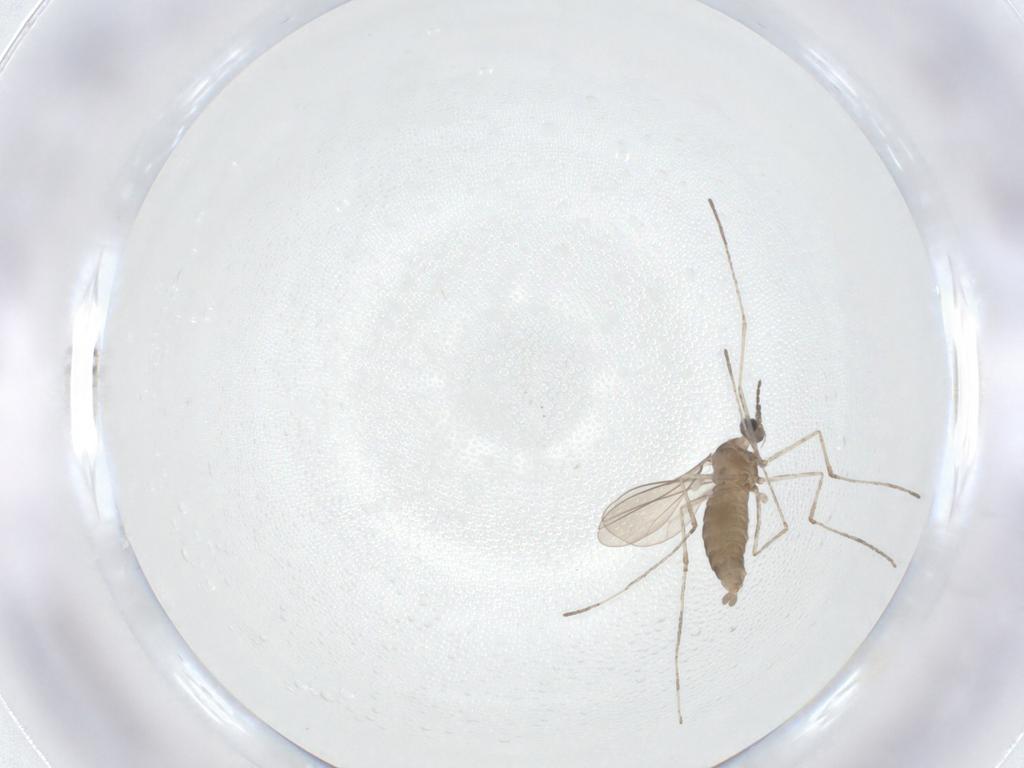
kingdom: Animalia
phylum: Arthropoda
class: Insecta
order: Diptera
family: Cecidomyiidae
